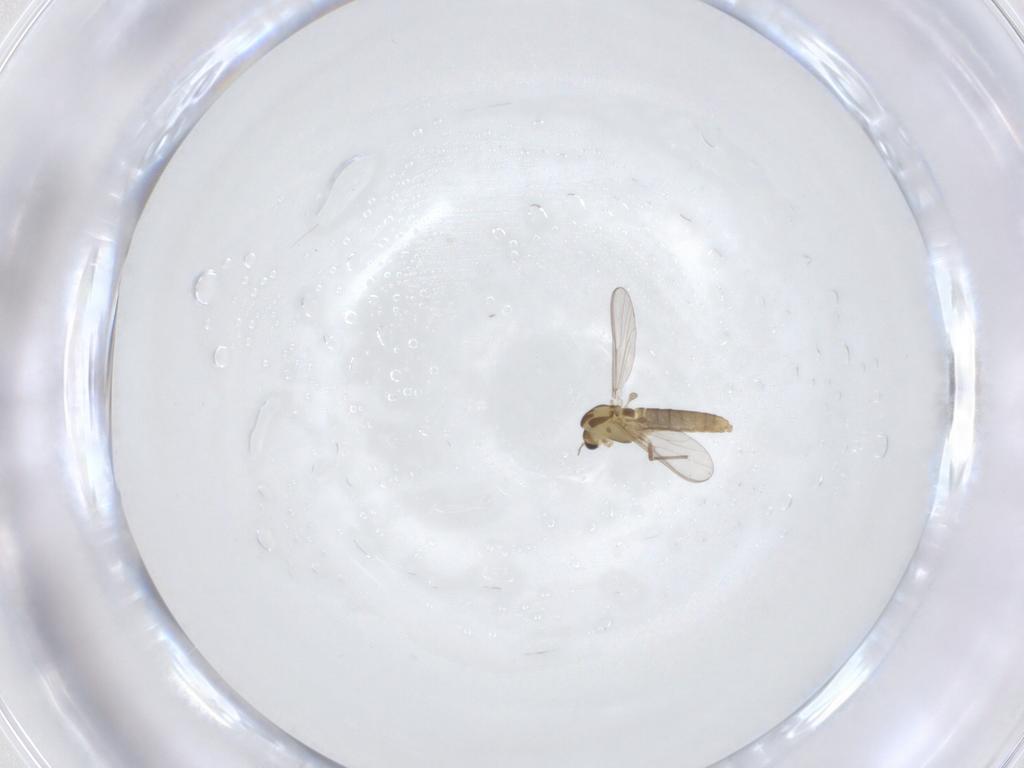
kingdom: Animalia
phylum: Arthropoda
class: Insecta
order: Diptera
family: Chironomidae
